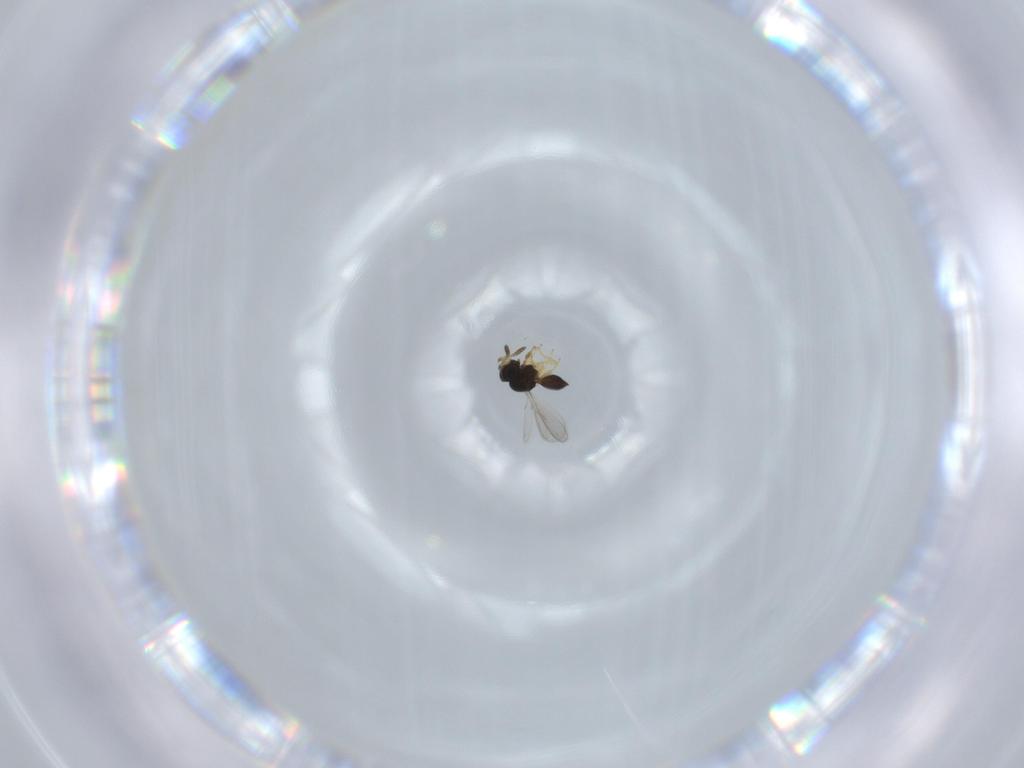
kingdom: Animalia
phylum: Arthropoda
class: Insecta
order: Hymenoptera
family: Scelionidae
